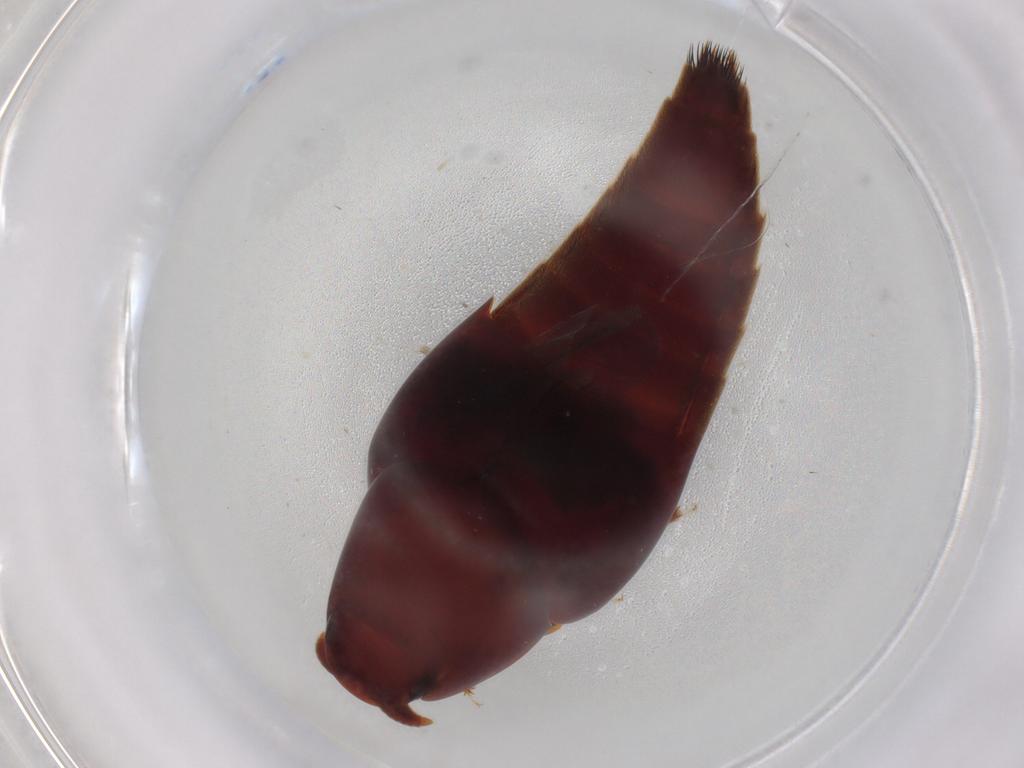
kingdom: Animalia
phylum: Arthropoda
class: Insecta
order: Coleoptera
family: Staphylinidae
